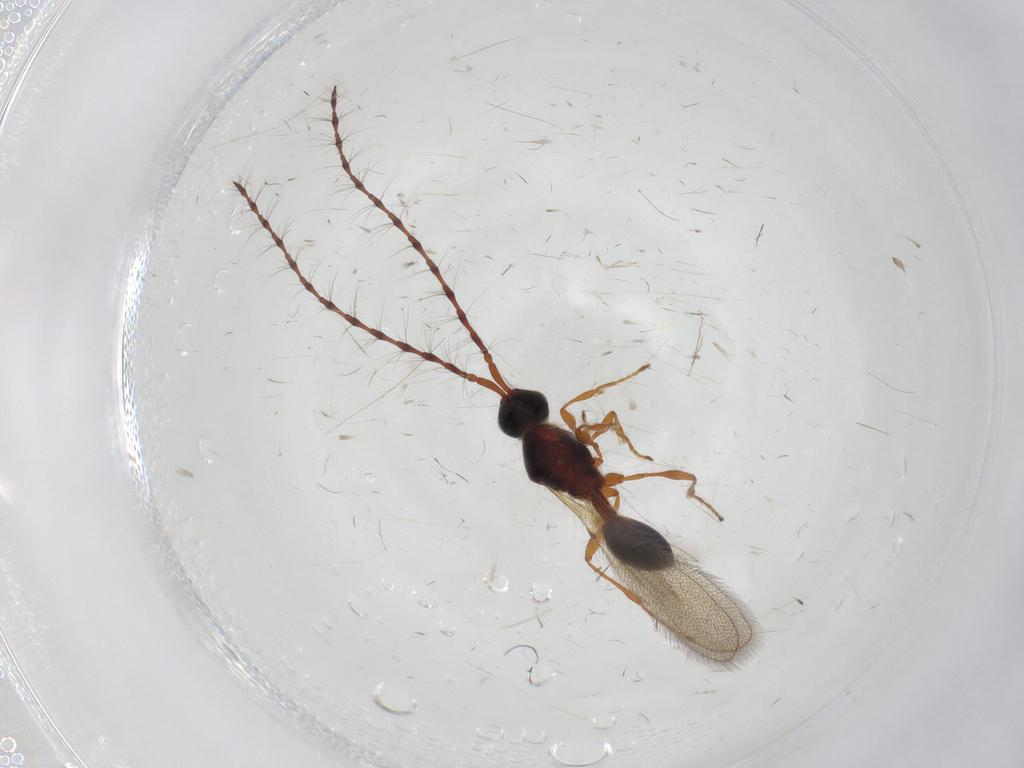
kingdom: Animalia
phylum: Arthropoda
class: Insecta
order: Hymenoptera
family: Diapriidae
